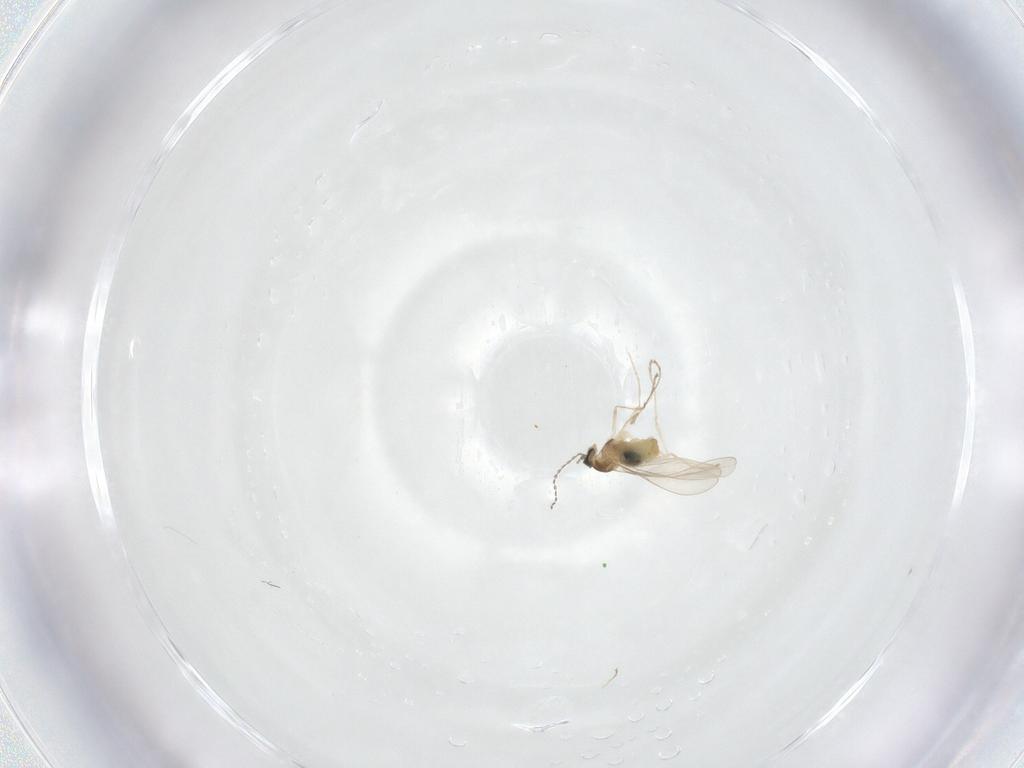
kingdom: Animalia
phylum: Arthropoda
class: Insecta
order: Diptera
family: Cecidomyiidae
